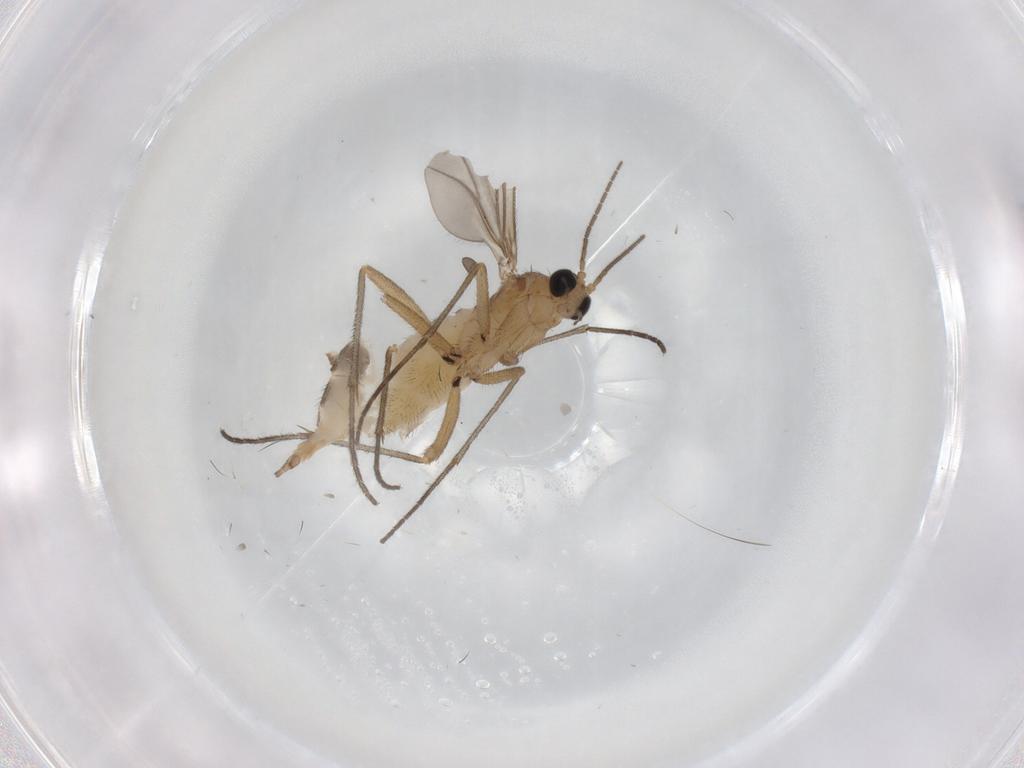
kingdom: Animalia
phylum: Arthropoda
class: Insecta
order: Diptera
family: Sciaridae
